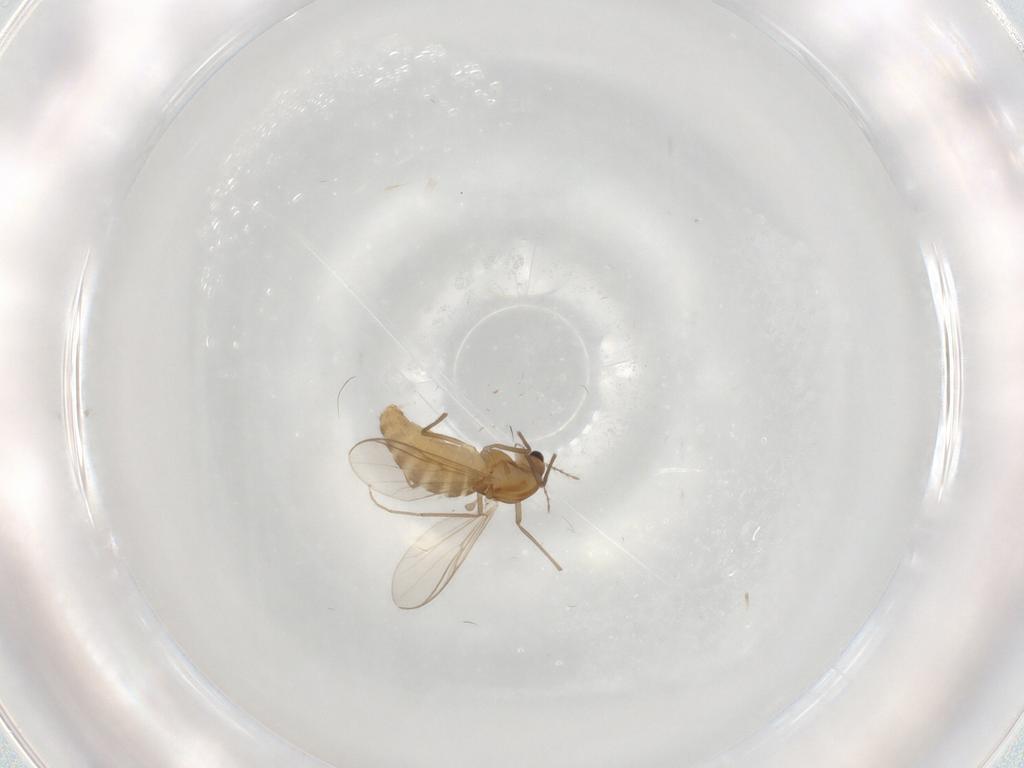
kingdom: Animalia
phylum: Arthropoda
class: Insecta
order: Diptera
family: Chironomidae
